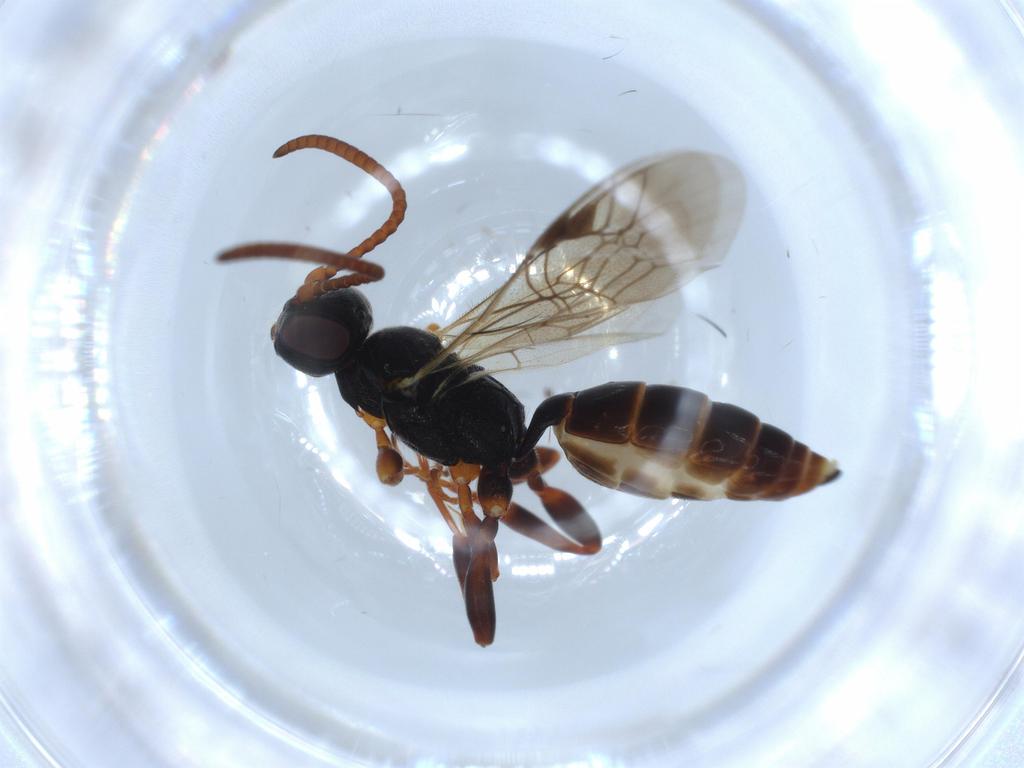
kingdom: Animalia
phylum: Arthropoda
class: Insecta
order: Hymenoptera
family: Ichneumonidae
